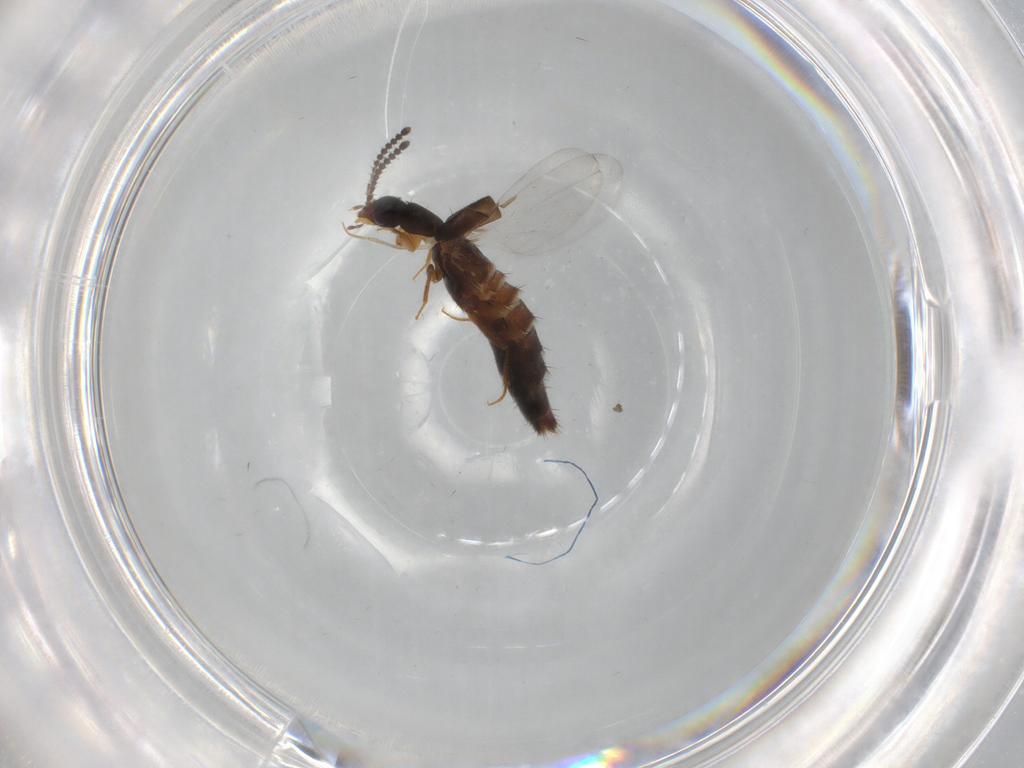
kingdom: Animalia
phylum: Arthropoda
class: Insecta
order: Coleoptera
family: Staphylinidae
